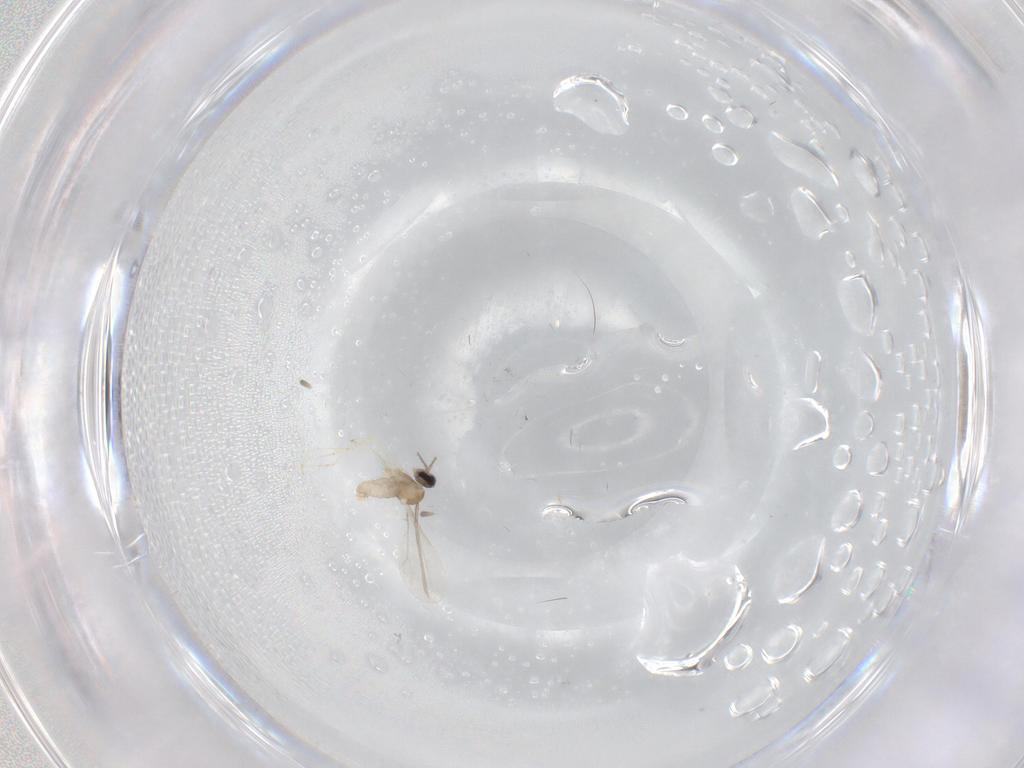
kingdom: Animalia
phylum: Arthropoda
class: Insecta
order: Diptera
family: Cecidomyiidae
